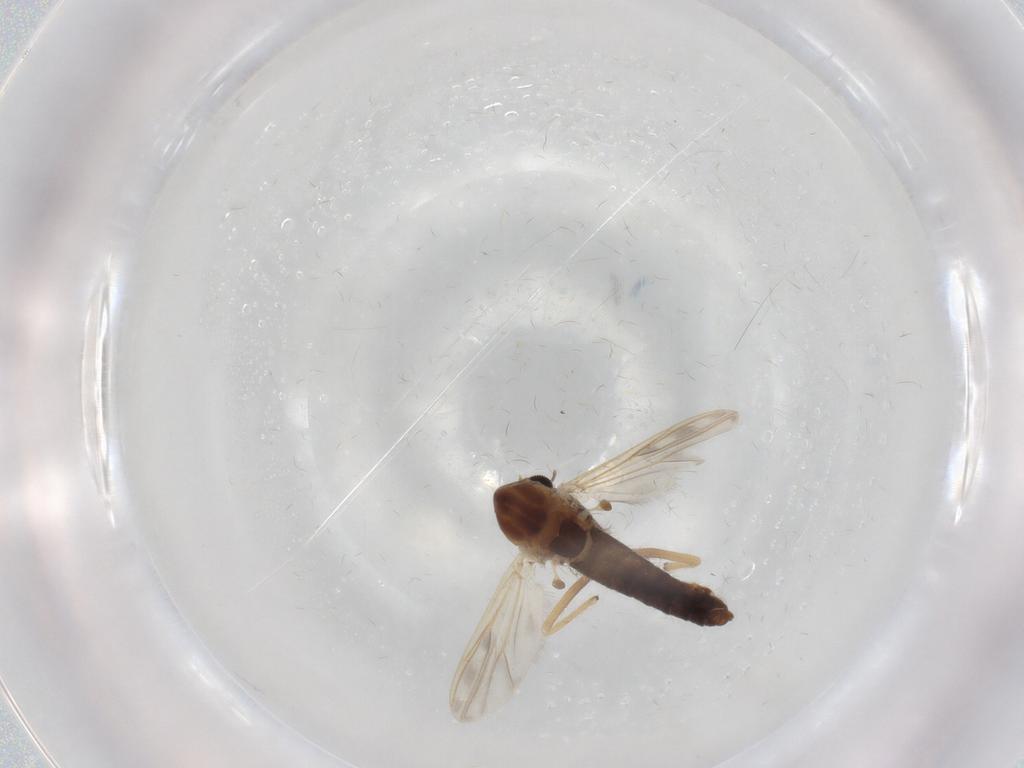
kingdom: Animalia
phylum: Arthropoda
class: Insecta
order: Diptera
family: Chironomidae
